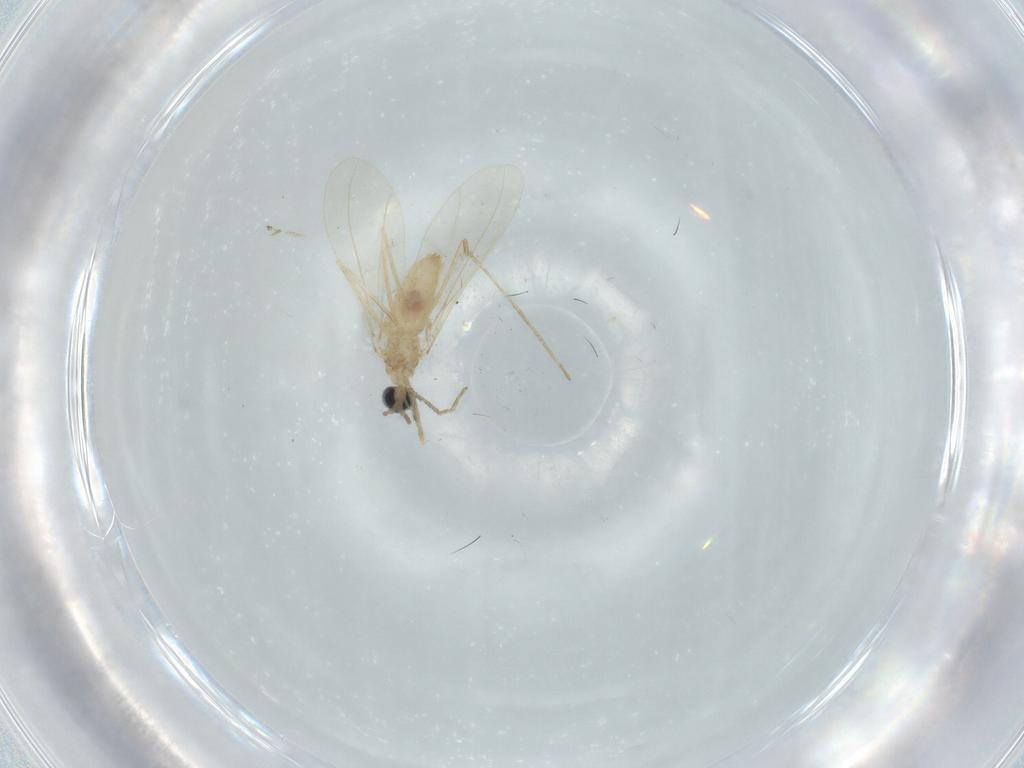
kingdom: Animalia
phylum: Arthropoda
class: Insecta
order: Diptera
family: Cecidomyiidae
